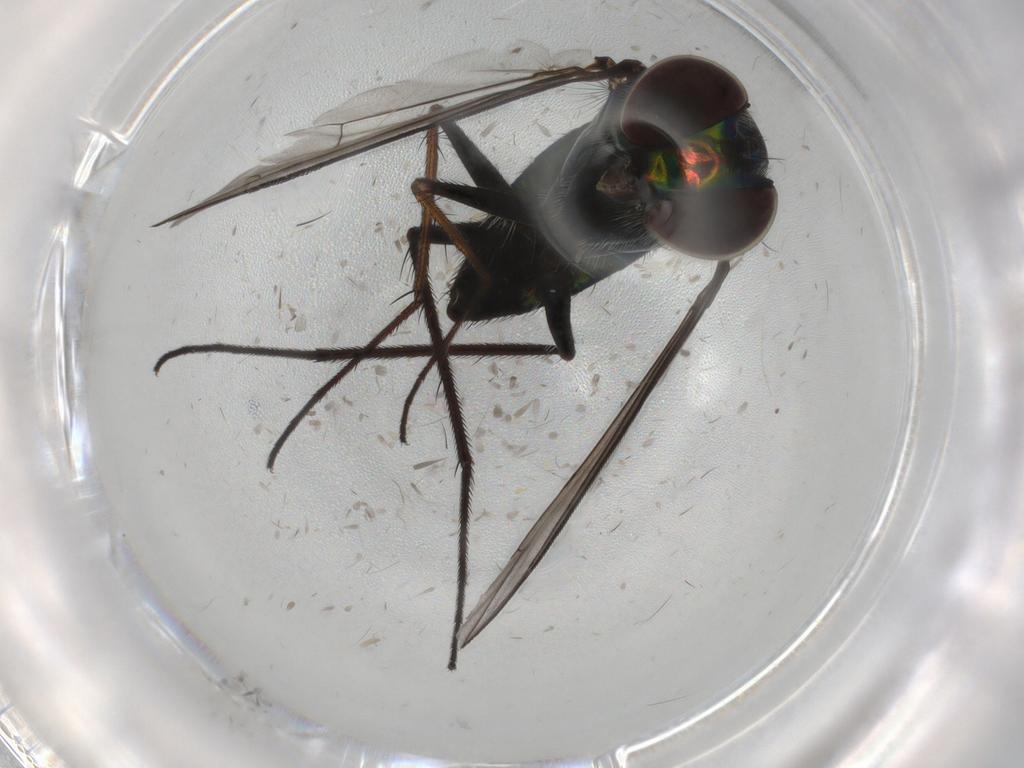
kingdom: Animalia
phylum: Arthropoda
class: Insecta
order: Diptera
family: Dolichopodidae
